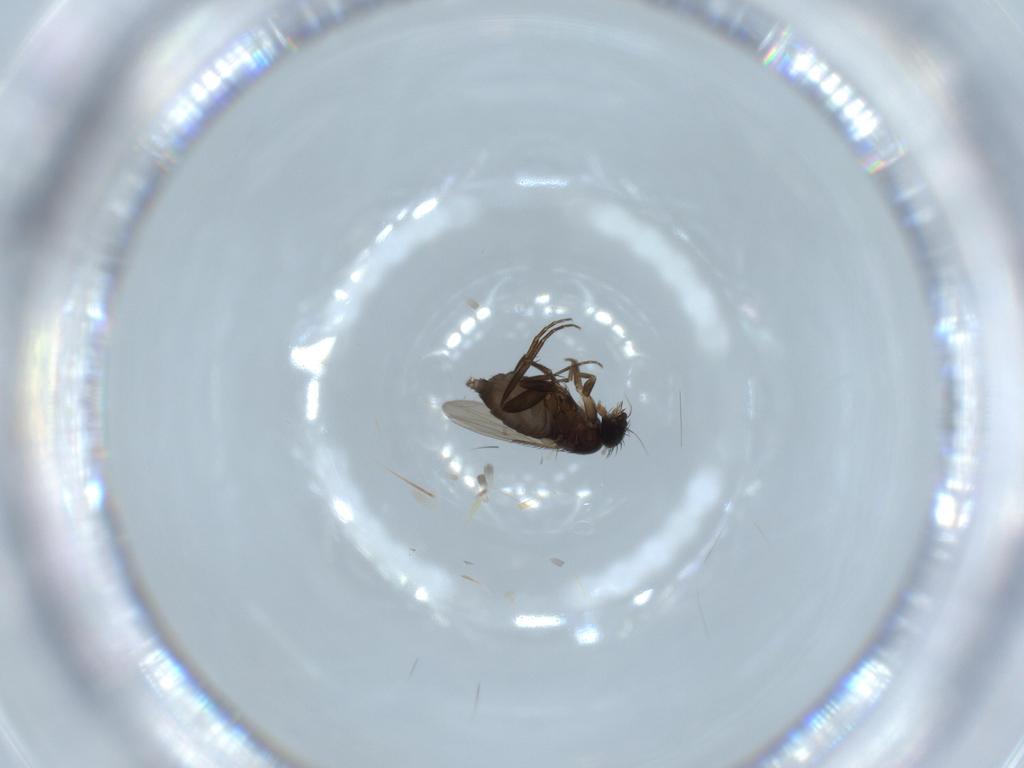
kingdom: Animalia
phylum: Arthropoda
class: Insecta
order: Diptera
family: Phoridae
